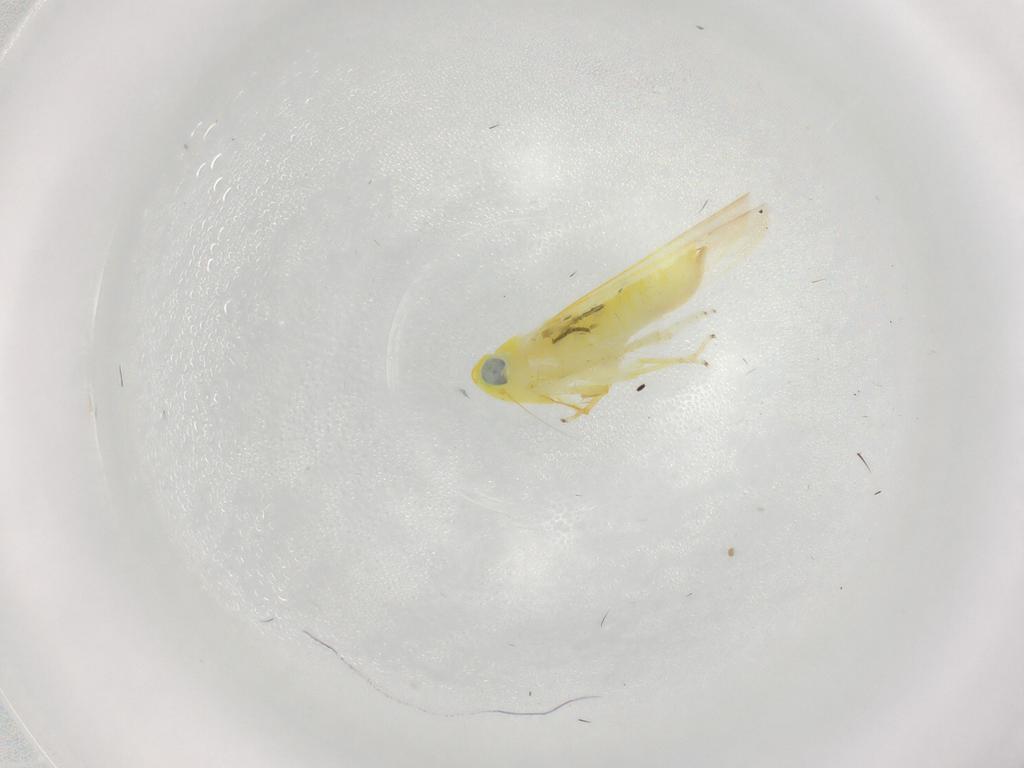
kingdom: Animalia
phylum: Arthropoda
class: Insecta
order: Hemiptera
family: Cicadellidae
